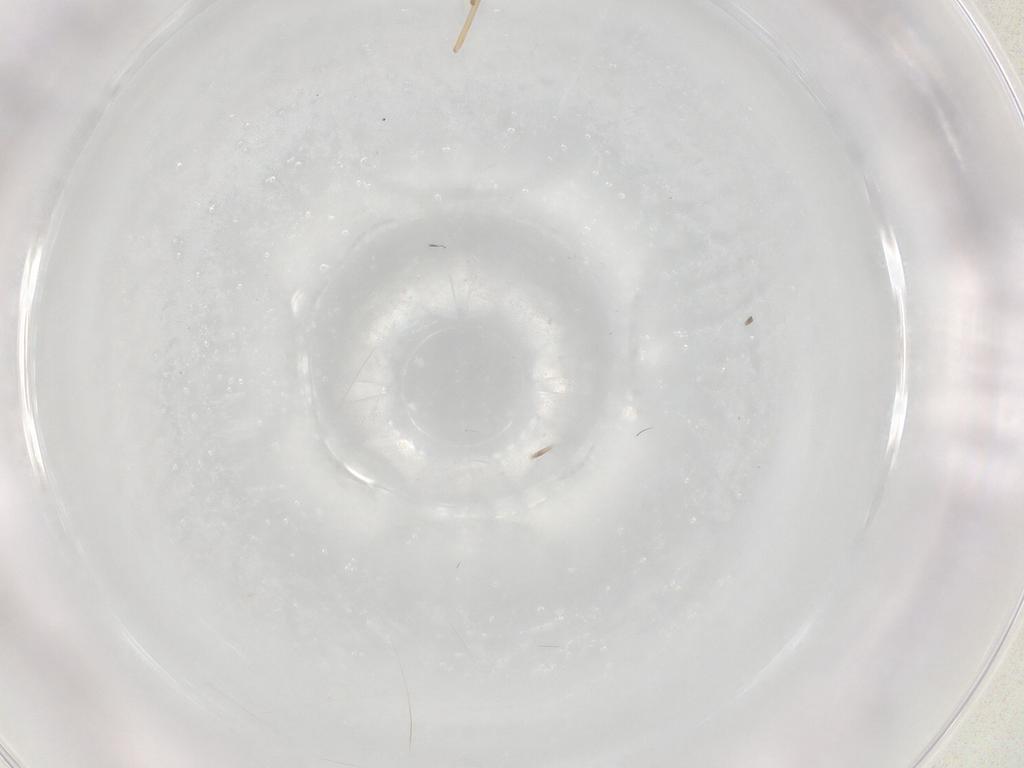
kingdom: Animalia
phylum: Arthropoda
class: Insecta
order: Diptera
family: Cecidomyiidae
